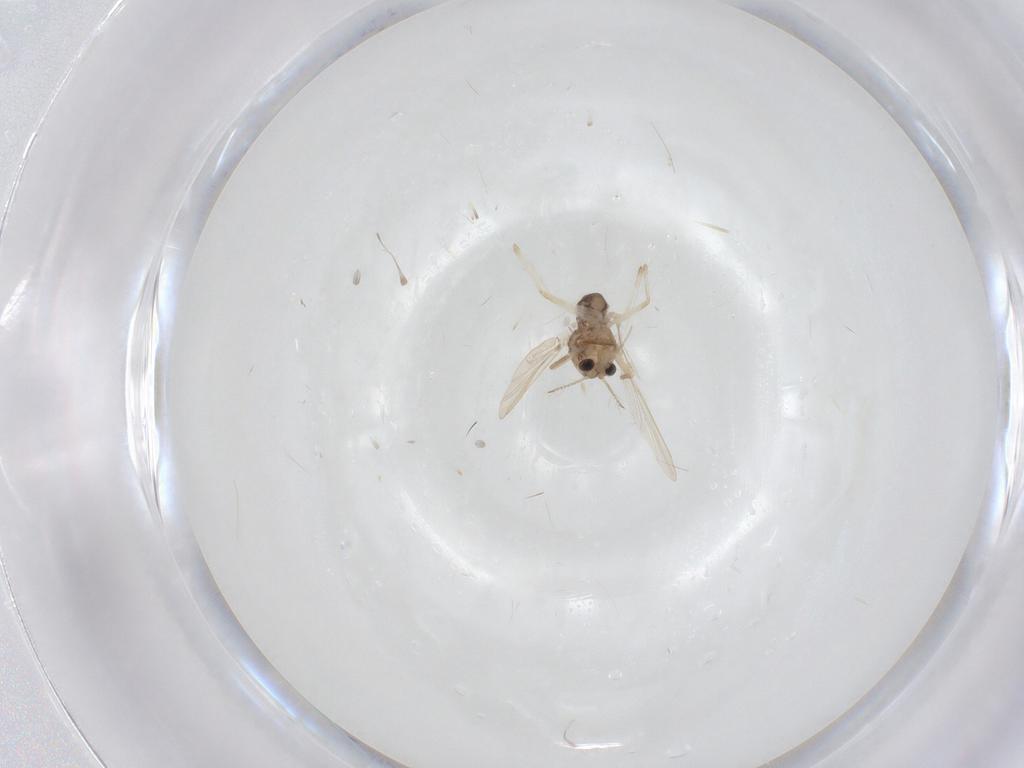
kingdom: Animalia
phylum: Arthropoda
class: Insecta
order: Diptera
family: Chironomidae
